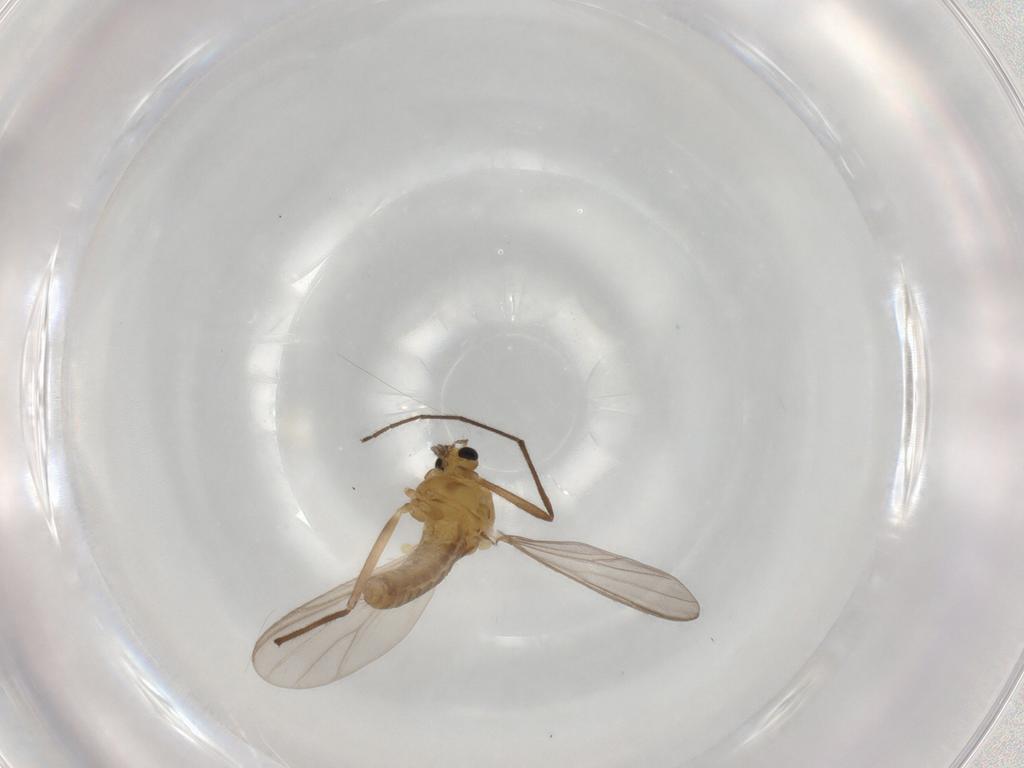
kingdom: Animalia
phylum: Arthropoda
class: Insecta
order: Diptera
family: Chironomidae
